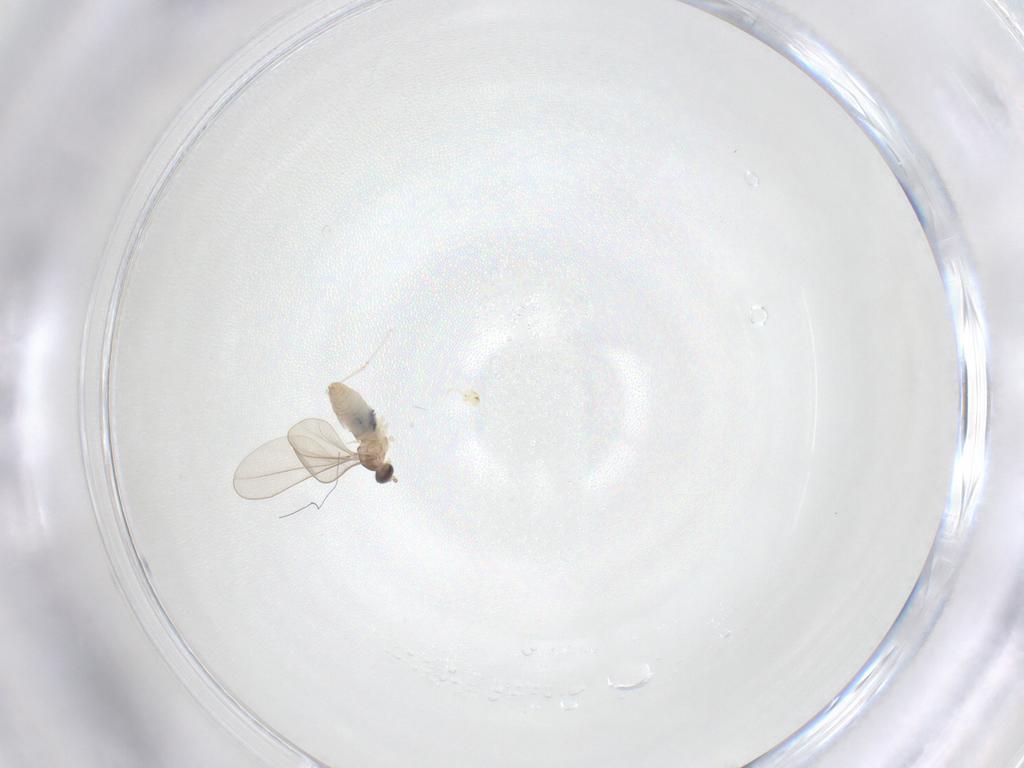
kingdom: Animalia
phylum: Arthropoda
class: Insecta
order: Diptera
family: Cecidomyiidae
